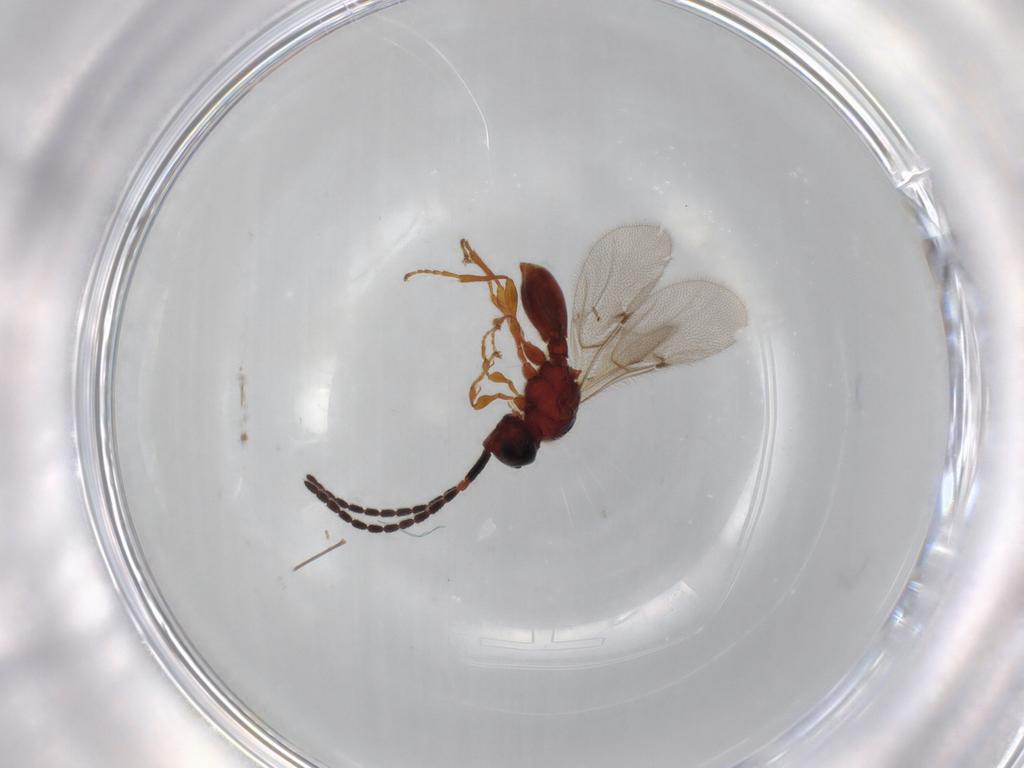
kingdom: Animalia
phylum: Arthropoda
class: Insecta
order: Hymenoptera
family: Diapriidae
